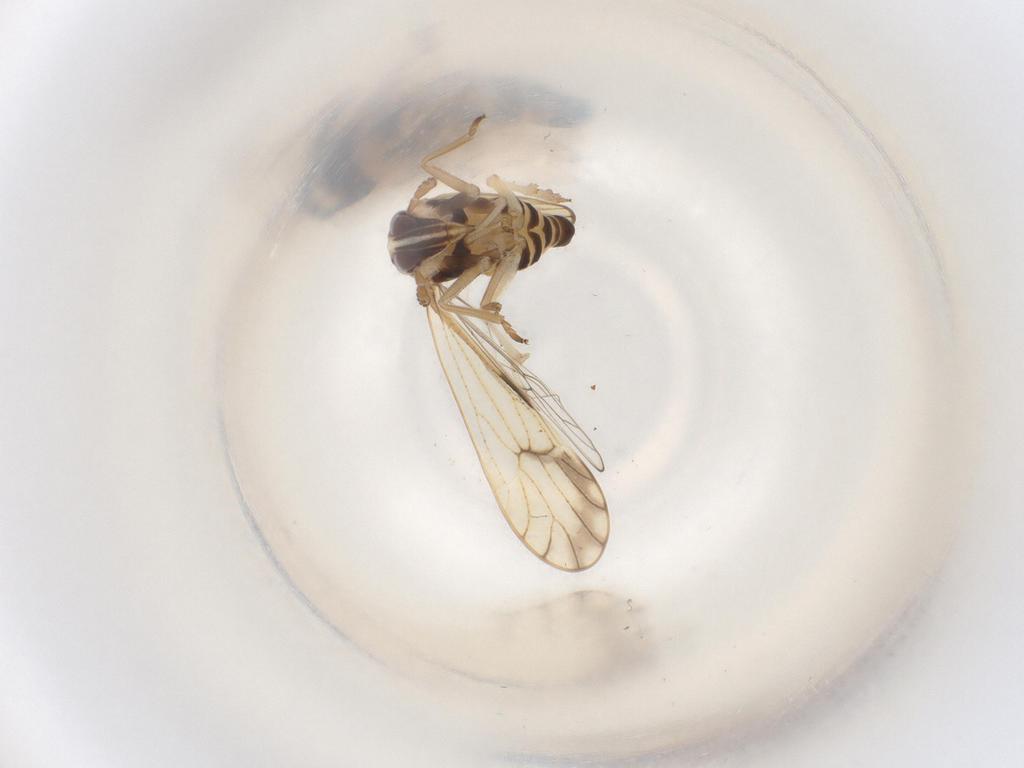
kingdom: Animalia
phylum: Arthropoda
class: Insecta
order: Hemiptera
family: Delphacidae
